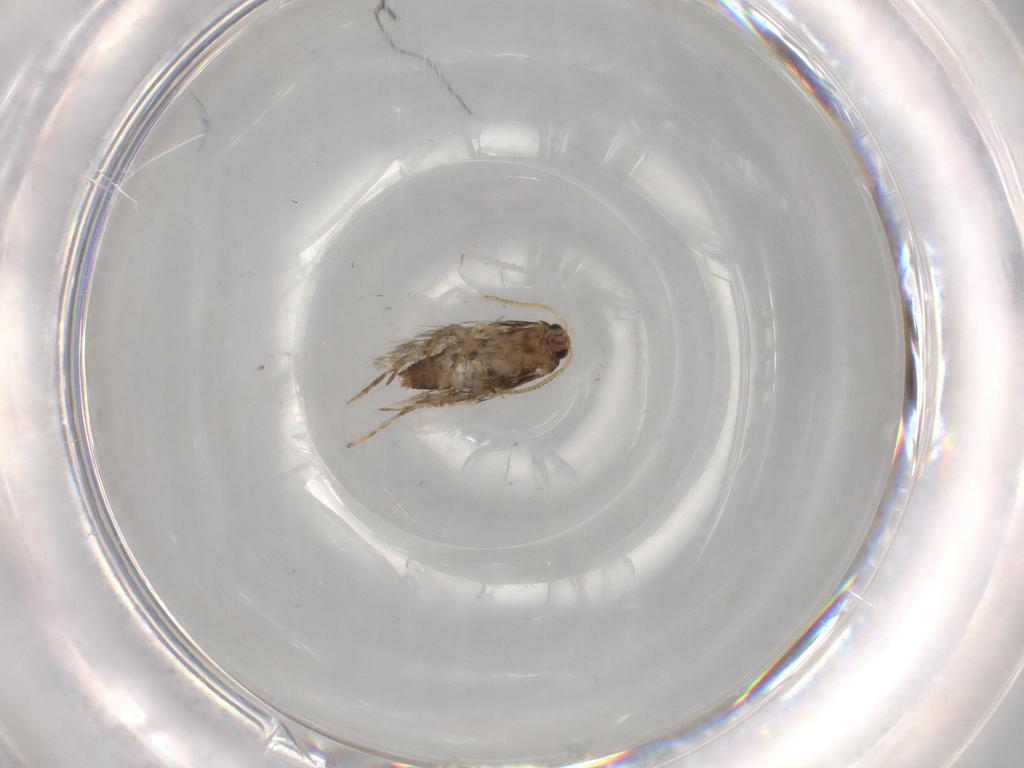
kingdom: Animalia
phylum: Arthropoda
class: Insecta
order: Lepidoptera
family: Copromorphidae
